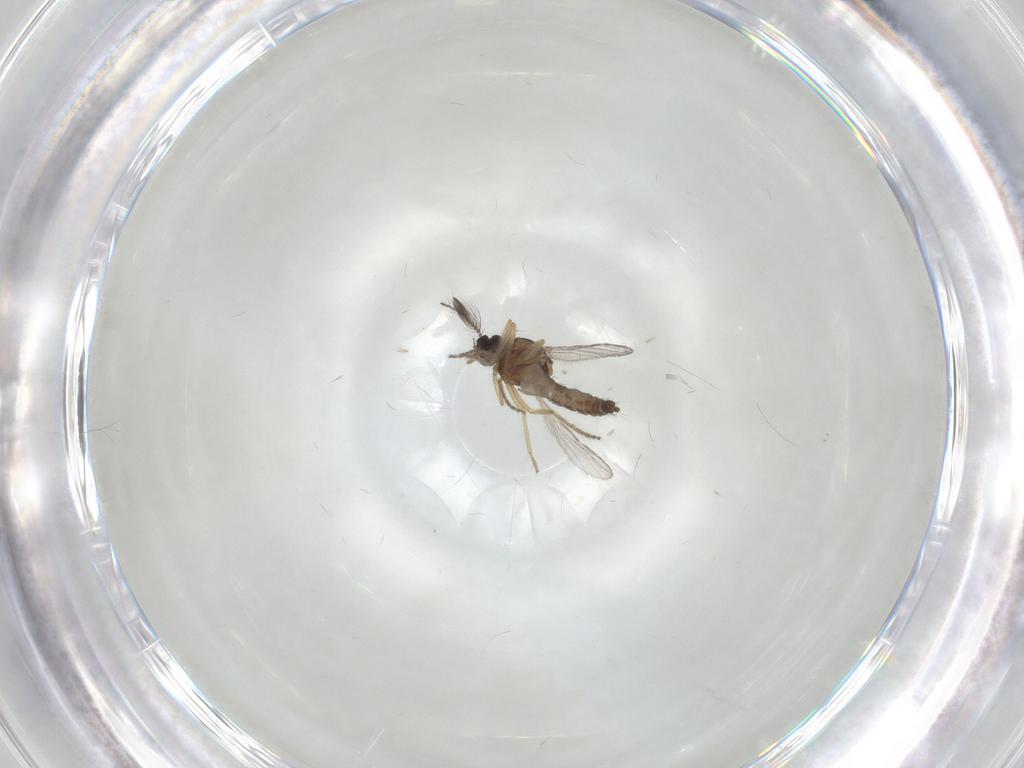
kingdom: Animalia
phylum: Arthropoda
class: Insecta
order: Diptera
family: Ceratopogonidae
